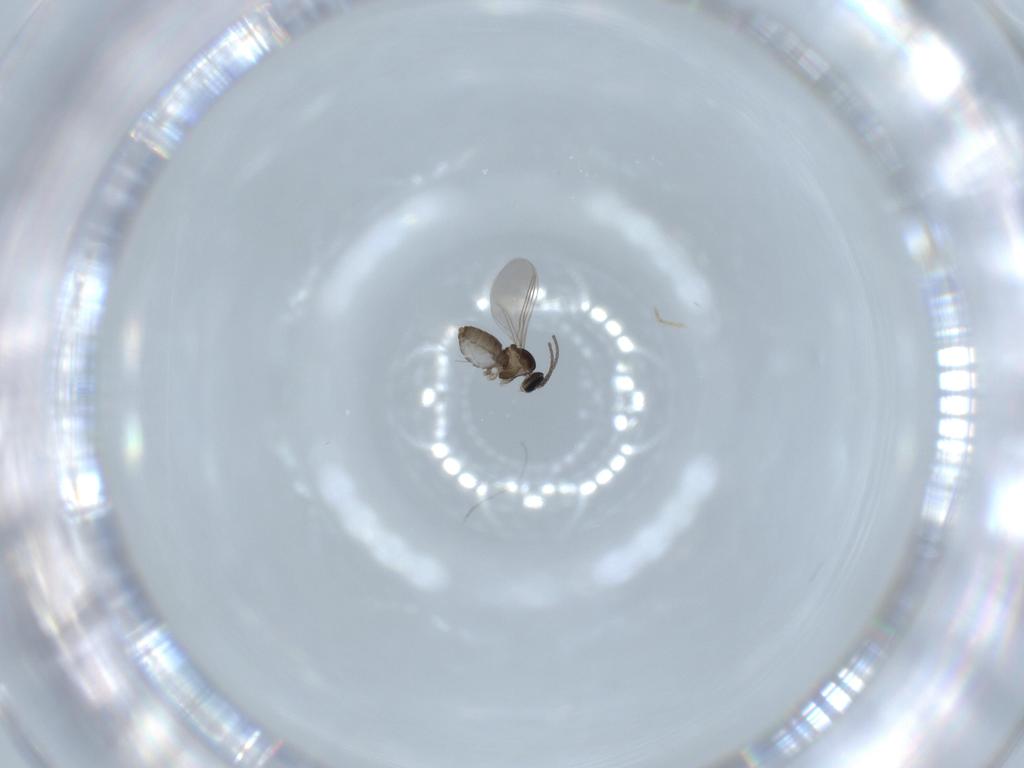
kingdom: Animalia
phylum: Arthropoda
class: Insecta
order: Diptera
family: Cecidomyiidae
